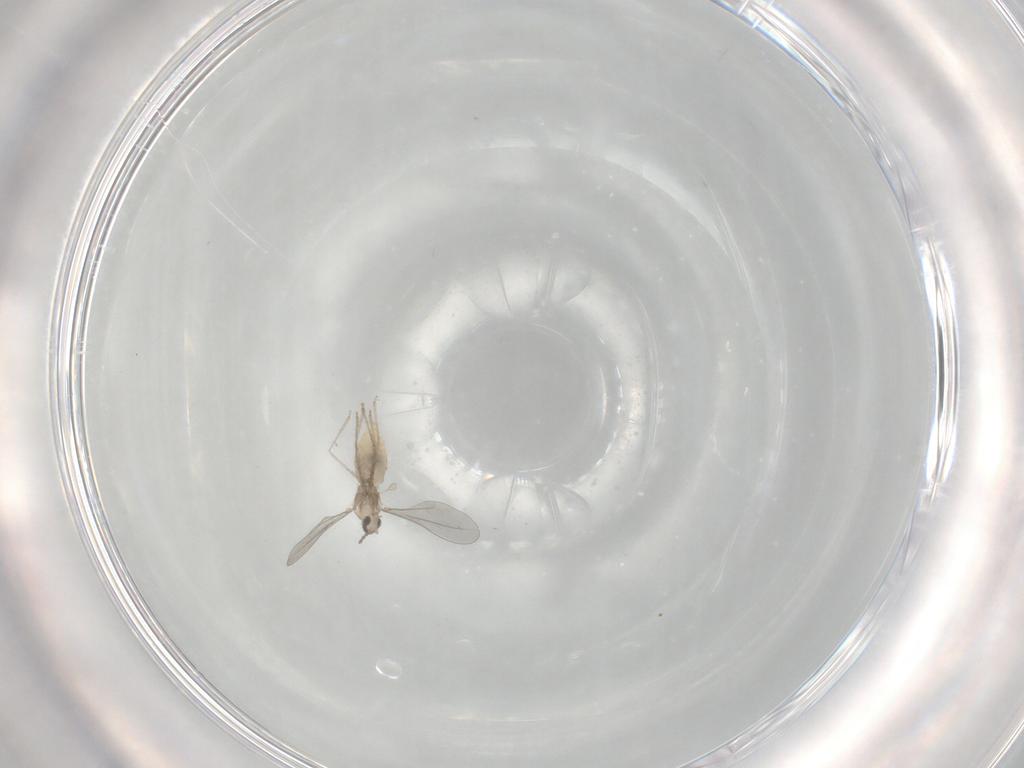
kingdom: Animalia
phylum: Arthropoda
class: Insecta
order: Diptera
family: Cecidomyiidae
